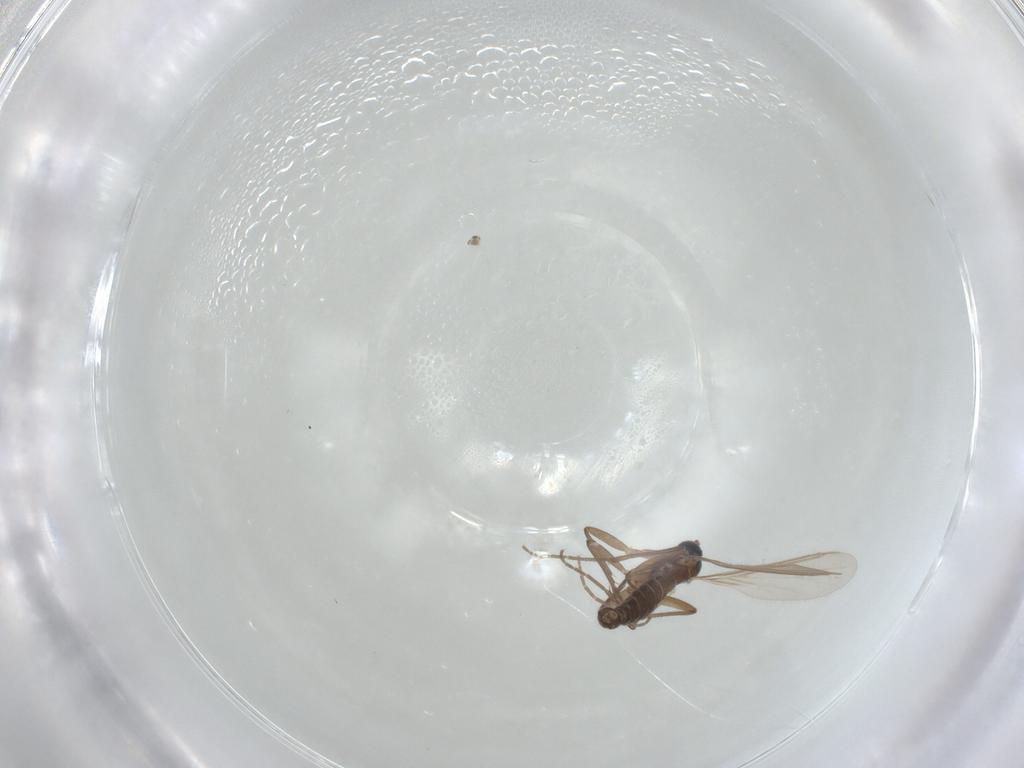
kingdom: Animalia
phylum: Arthropoda
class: Insecta
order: Diptera
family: Sciaridae
